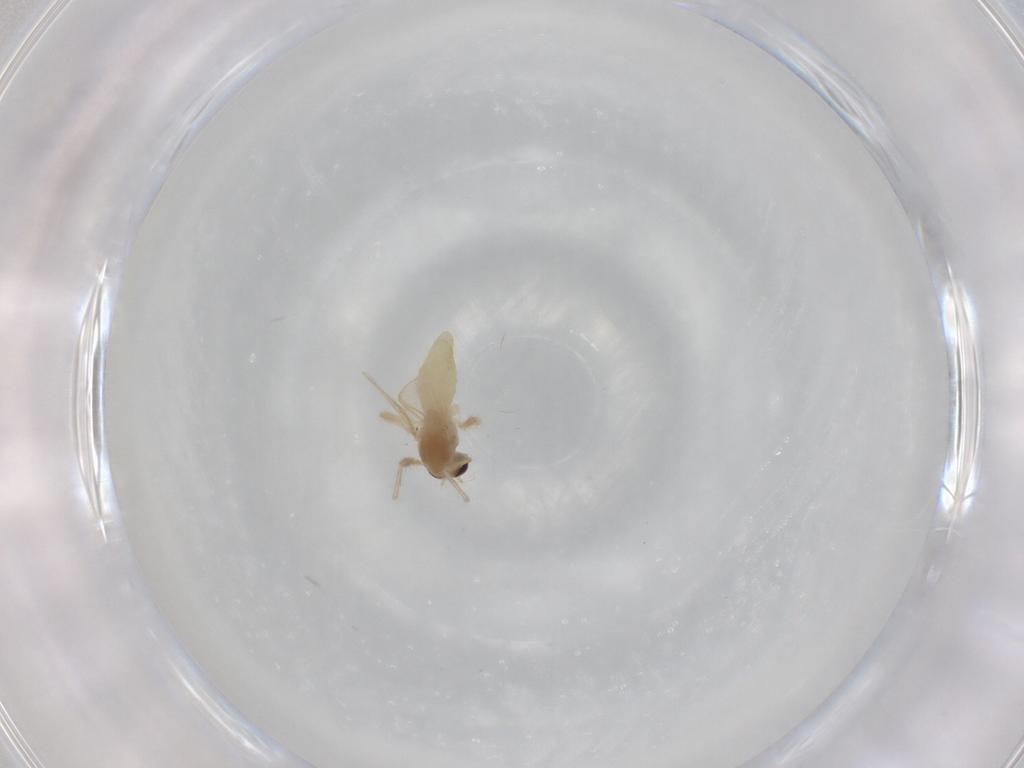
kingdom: Animalia
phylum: Arthropoda
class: Insecta
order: Diptera
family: Chironomidae
